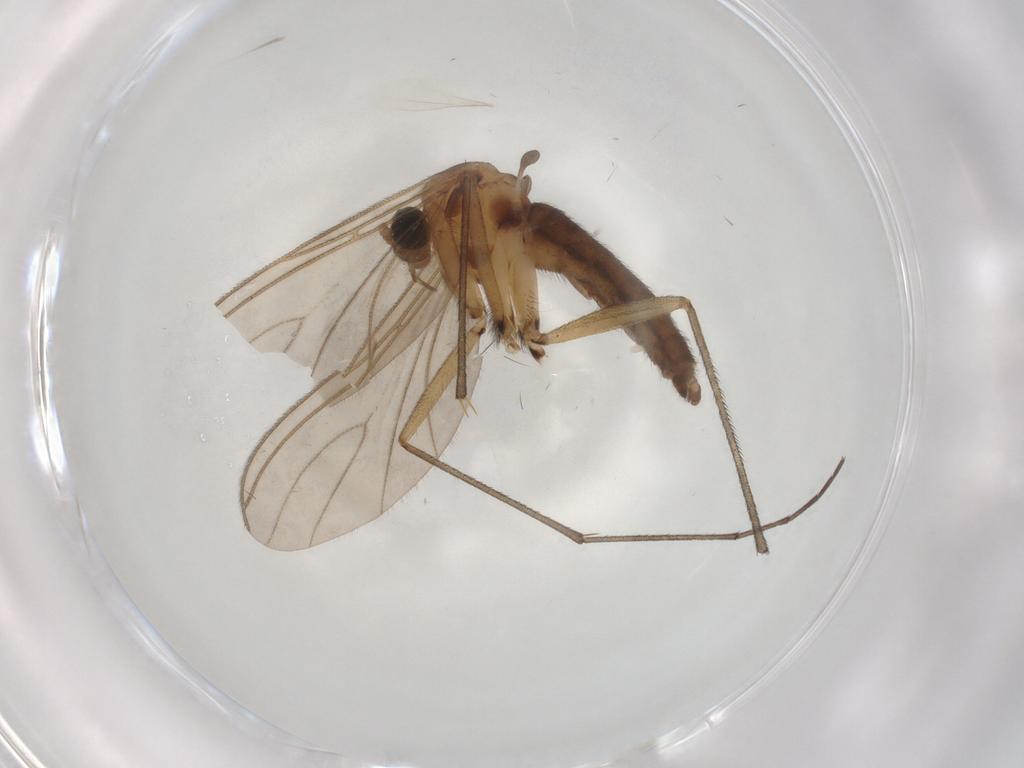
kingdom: Animalia
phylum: Arthropoda
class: Insecta
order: Diptera
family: Sciaridae
